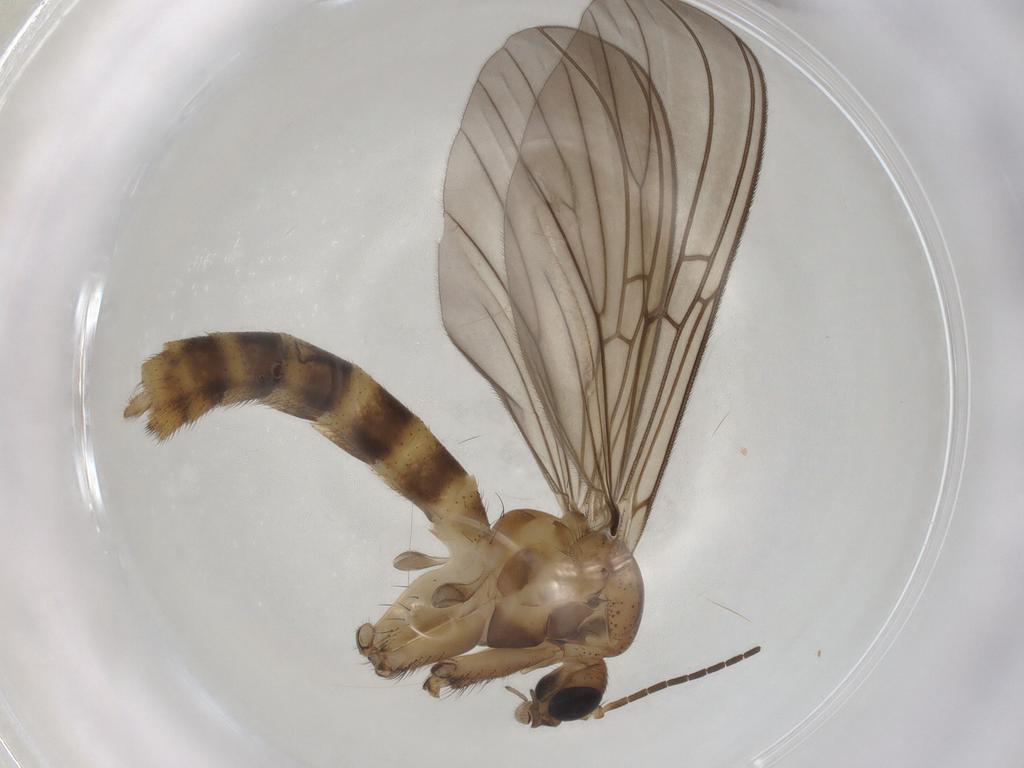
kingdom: Animalia
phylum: Arthropoda
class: Insecta
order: Diptera
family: Mycetophilidae
